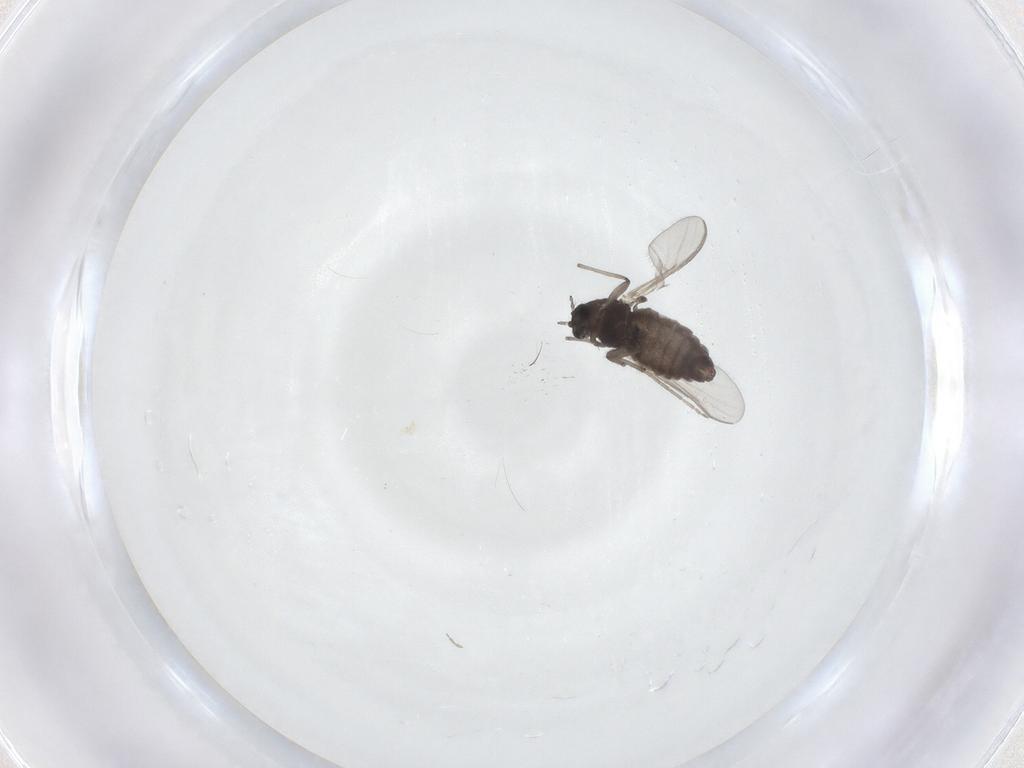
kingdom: Animalia
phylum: Arthropoda
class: Insecta
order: Diptera
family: Chironomidae
